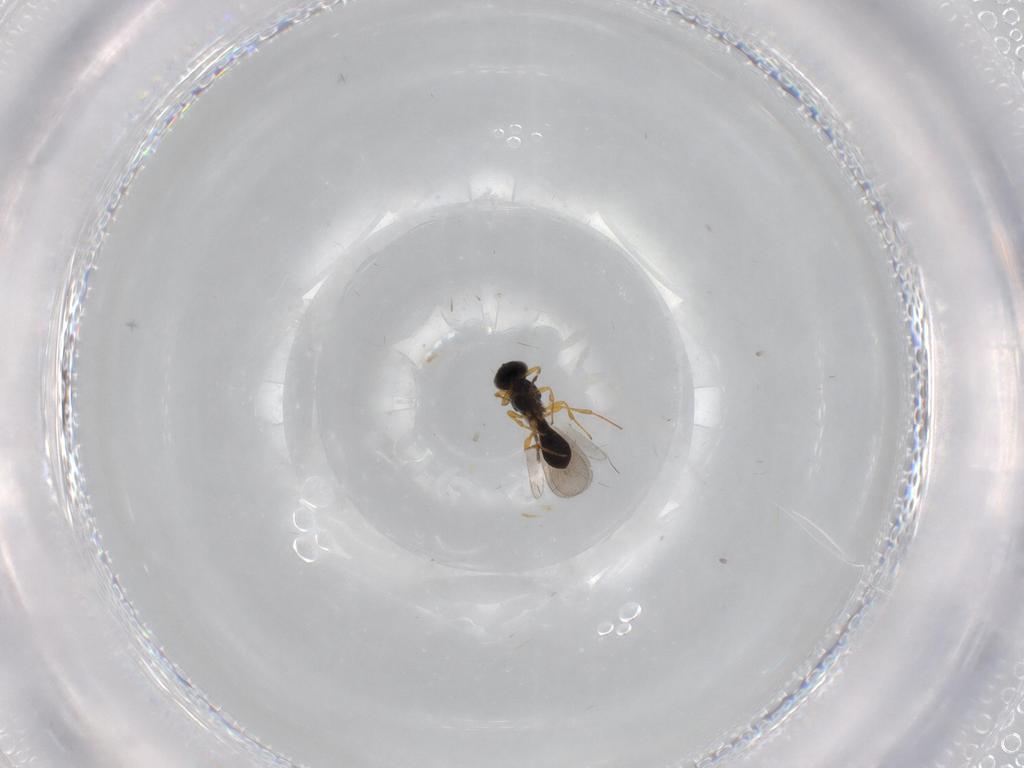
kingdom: Animalia
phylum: Arthropoda
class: Insecta
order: Hymenoptera
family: Platygastridae
